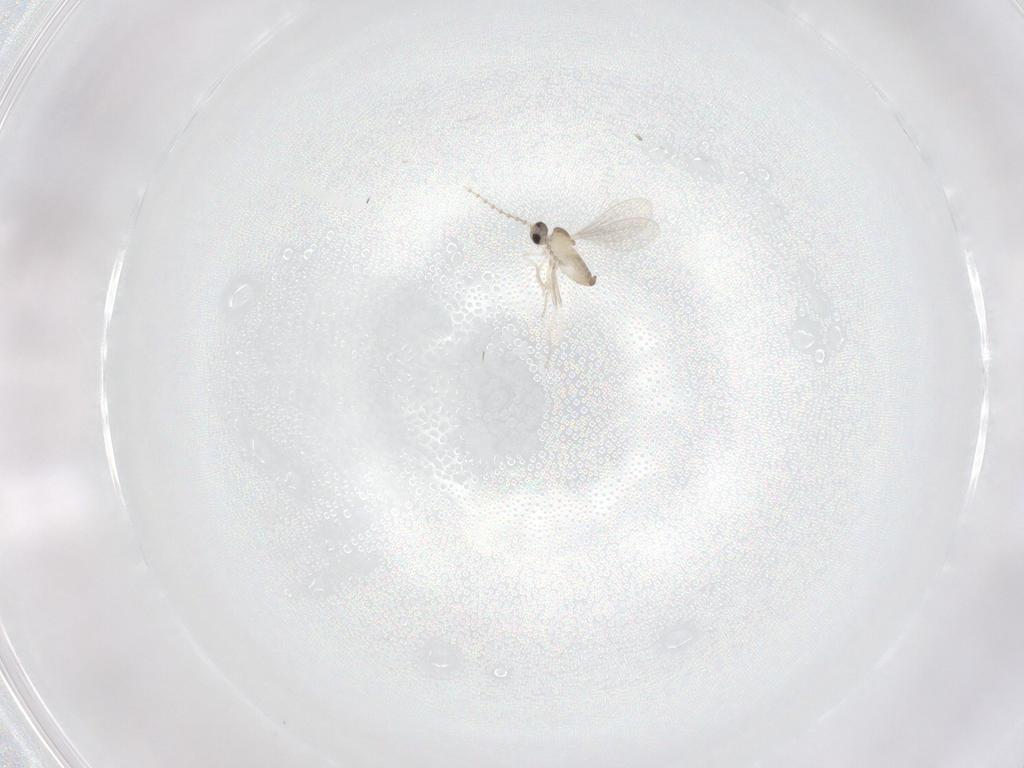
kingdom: Animalia
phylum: Arthropoda
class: Insecta
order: Diptera
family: Cecidomyiidae
